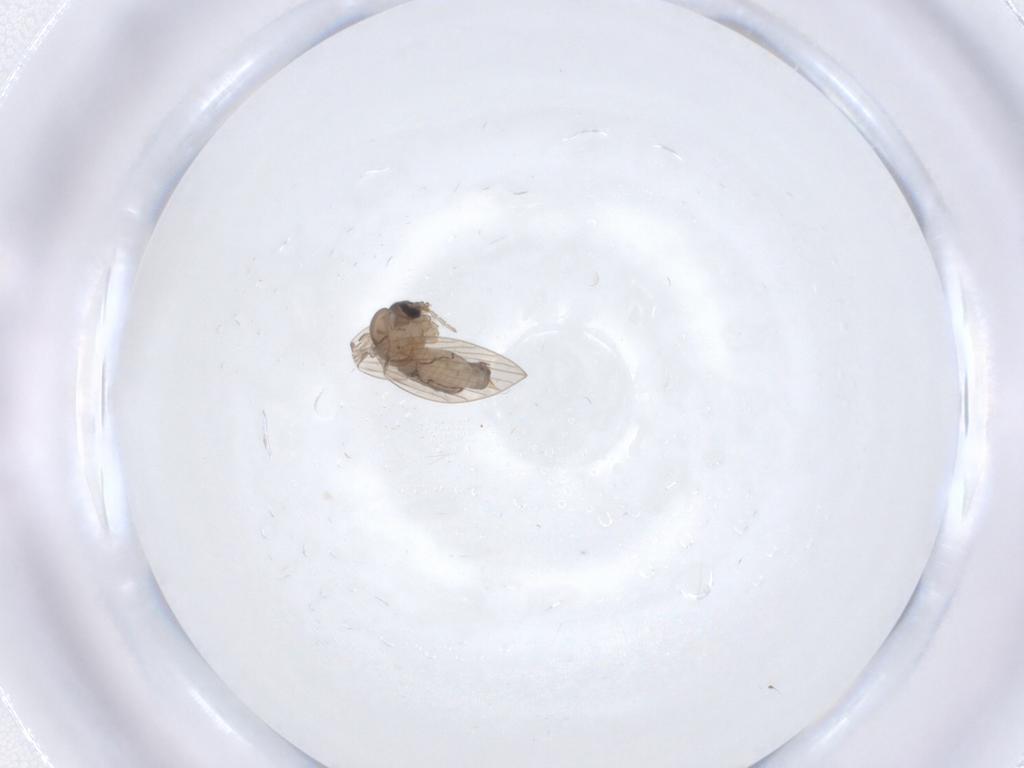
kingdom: Animalia
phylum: Arthropoda
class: Insecta
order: Diptera
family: Psychodidae
